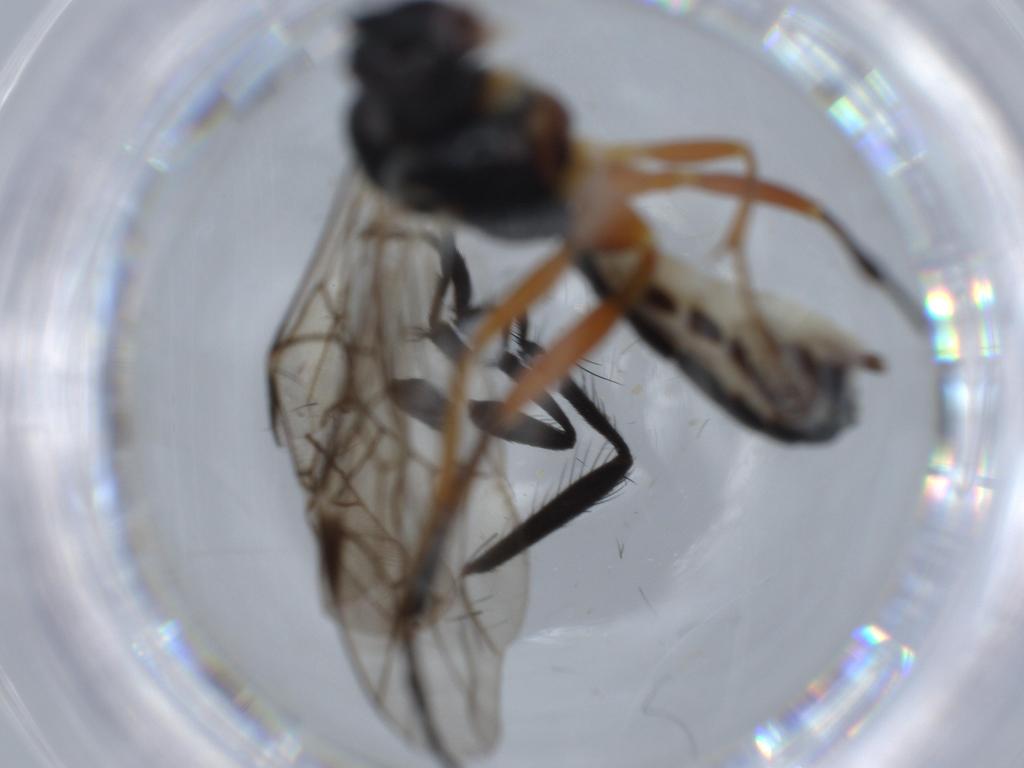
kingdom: Animalia
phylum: Arthropoda
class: Insecta
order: Hymenoptera
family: Ichneumonidae
